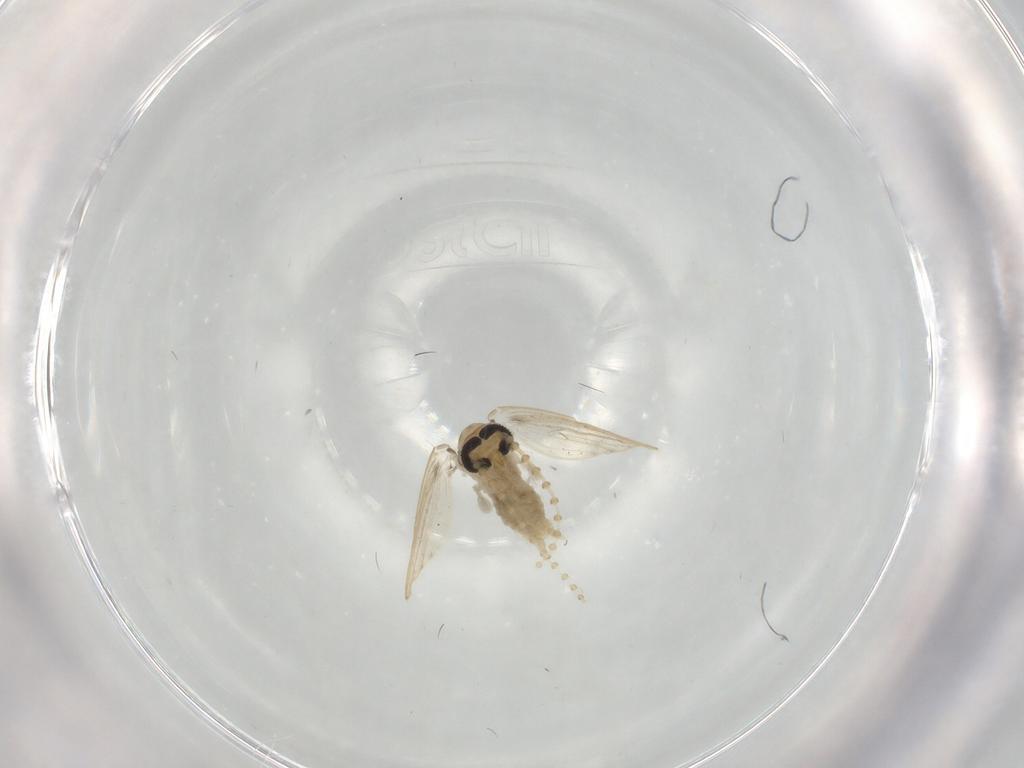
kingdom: Animalia
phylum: Arthropoda
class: Insecta
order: Diptera
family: Psychodidae
